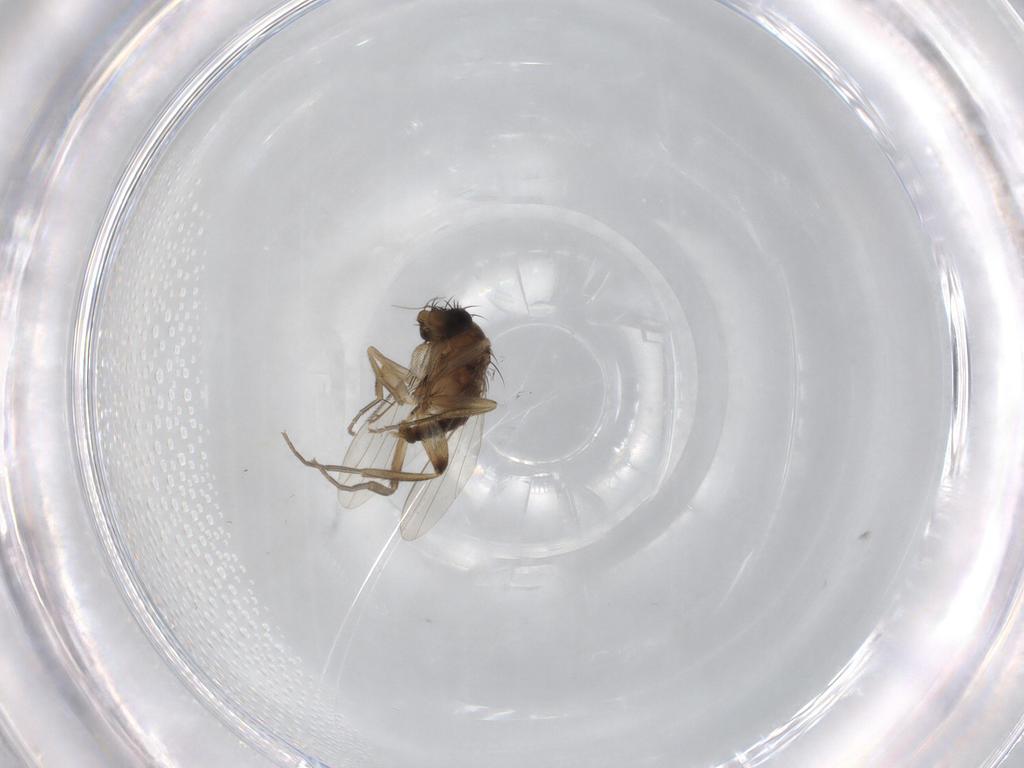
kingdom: Animalia
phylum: Arthropoda
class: Insecta
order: Diptera
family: Phoridae
